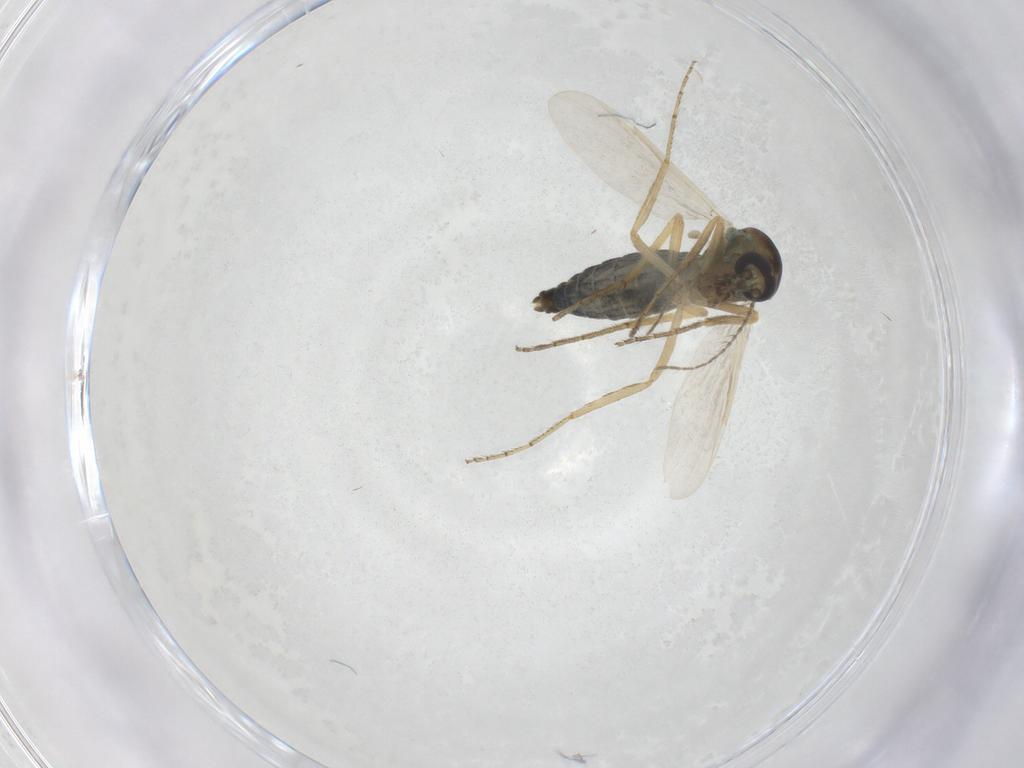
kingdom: Animalia
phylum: Arthropoda
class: Insecta
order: Diptera
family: Ceratopogonidae
